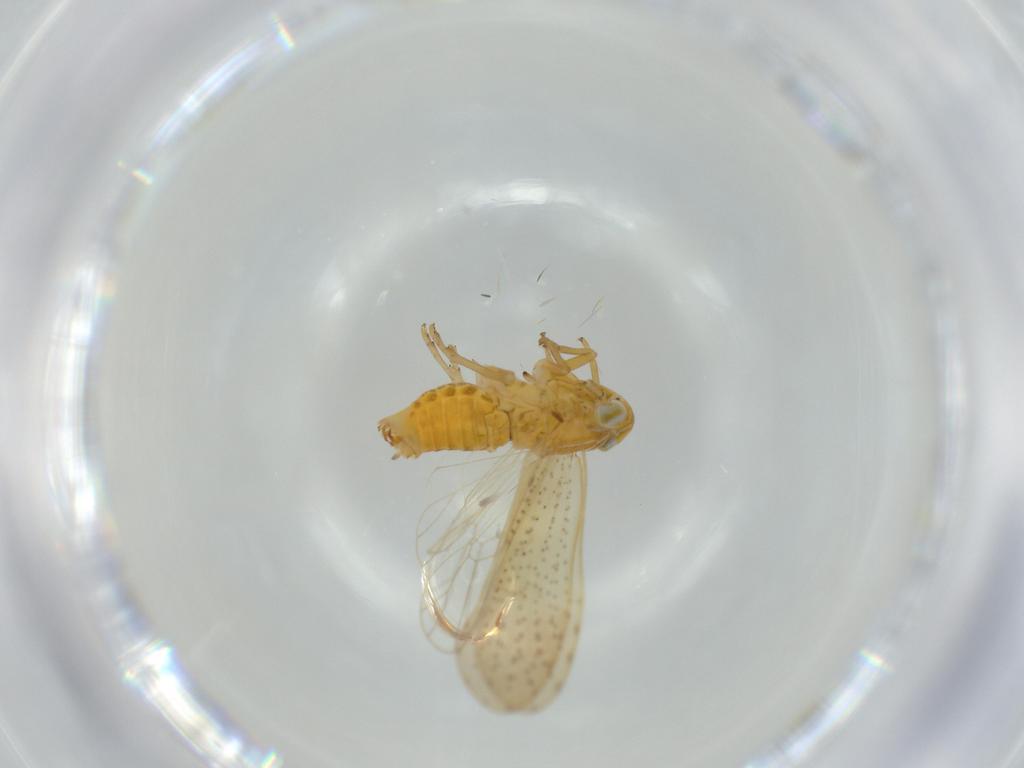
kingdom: Animalia
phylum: Arthropoda
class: Insecta
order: Hemiptera
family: Delphacidae
